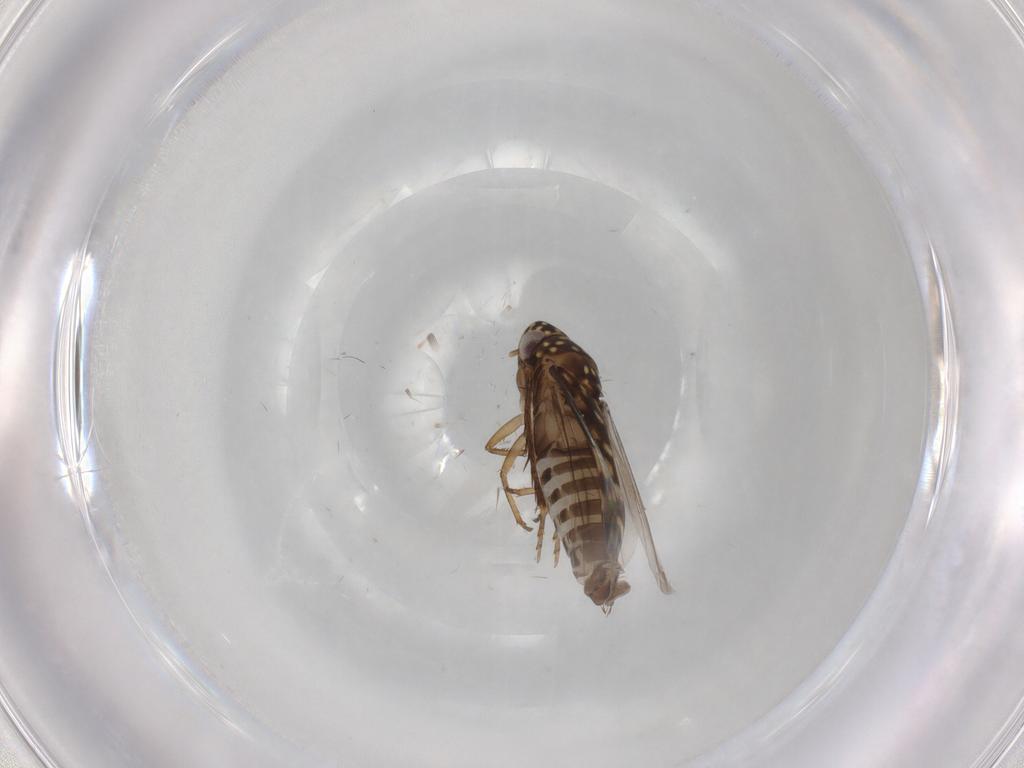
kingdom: Animalia
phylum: Arthropoda
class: Insecta
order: Hemiptera
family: Cicadellidae
